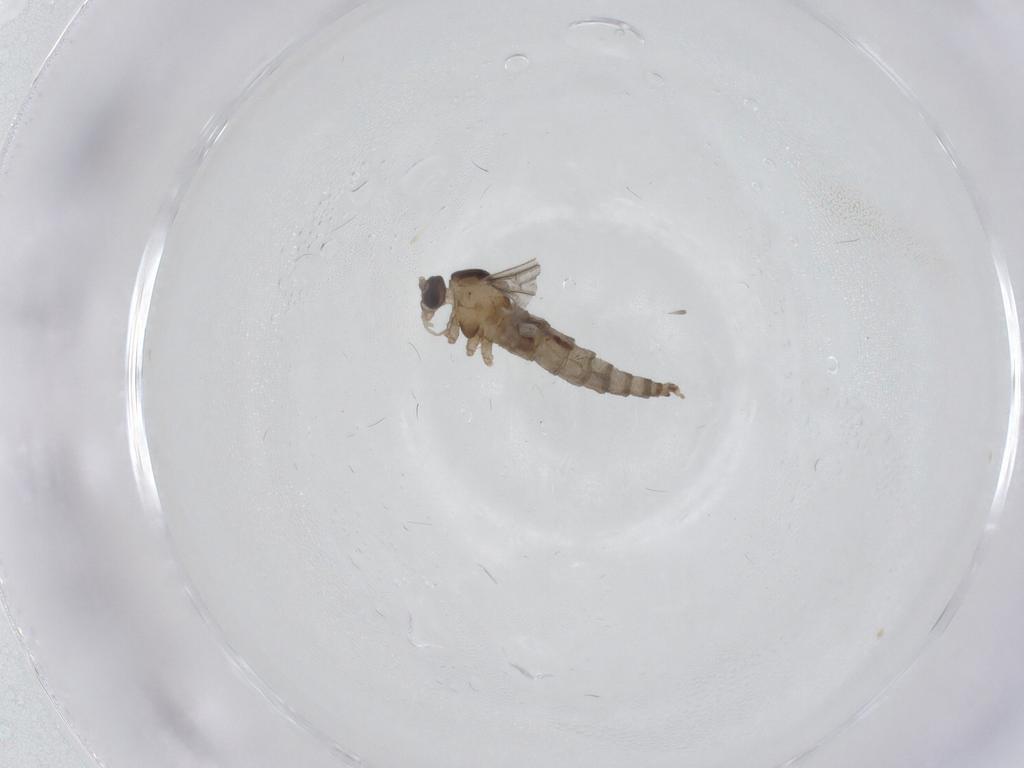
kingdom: Animalia
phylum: Arthropoda
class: Insecta
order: Diptera
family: Cecidomyiidae
